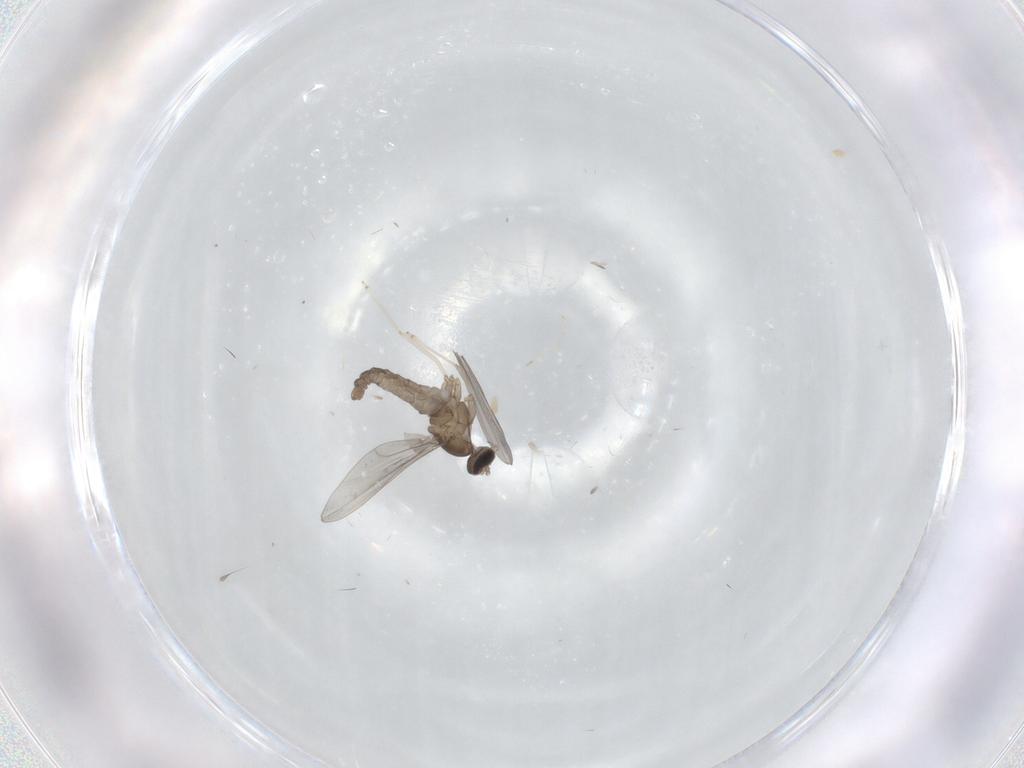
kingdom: Animalia
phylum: Arthropoda
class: Insecta
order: Diptera
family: Limoniidae
